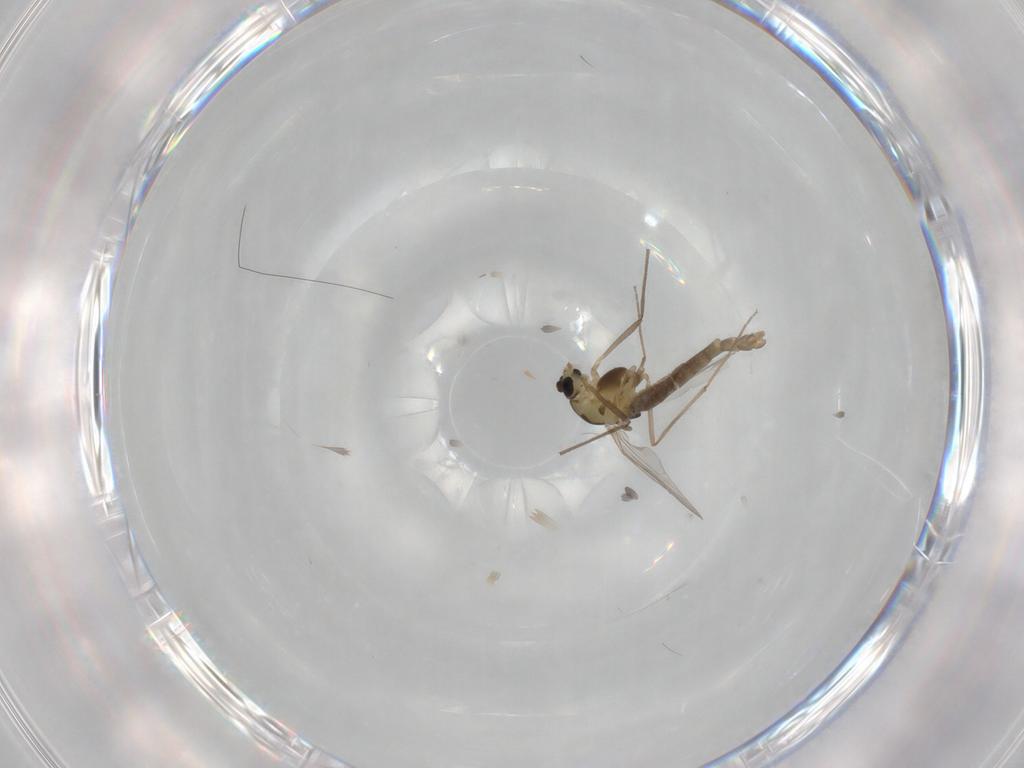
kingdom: Animalia
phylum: Arthropoda
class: Insecta
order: Diptera
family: Chironomidae
